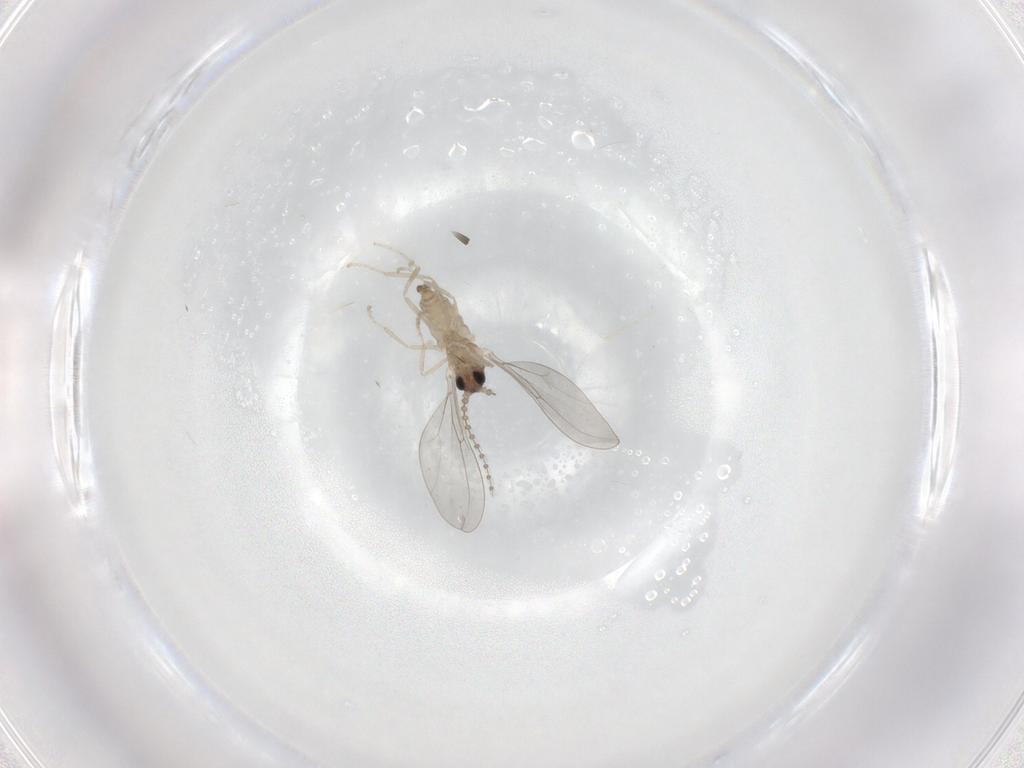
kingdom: Animalia
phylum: Arthropoda
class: Insecta
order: Diptera
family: Cecidomyiidae
